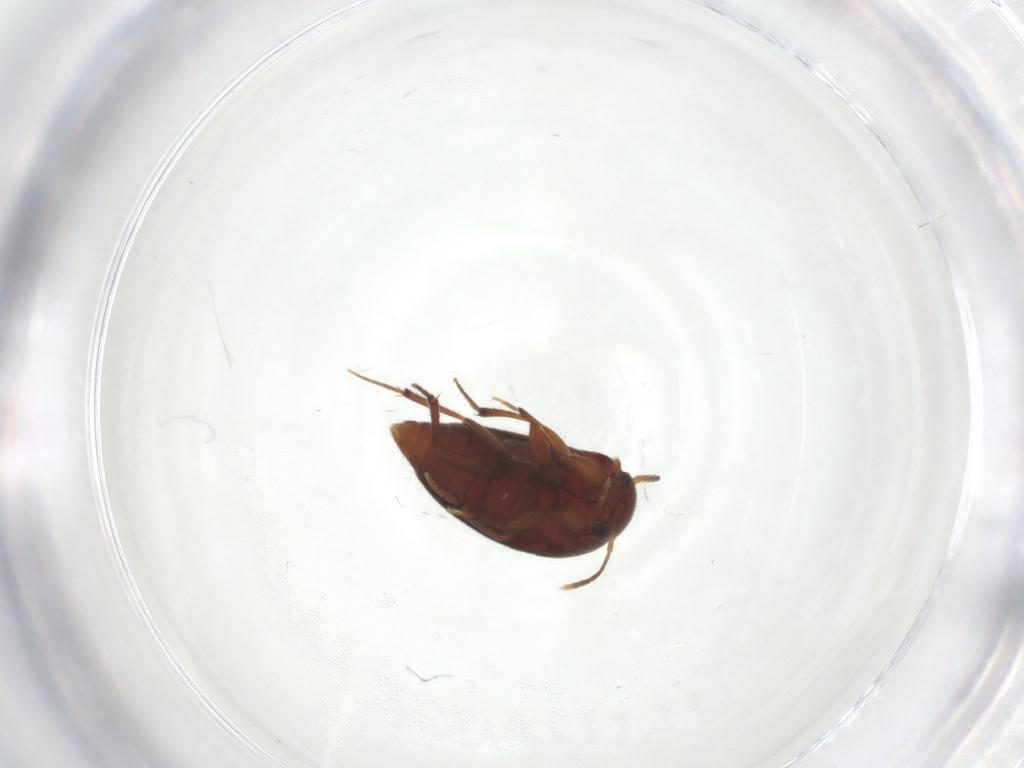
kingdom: Animalia
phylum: Arthropoda
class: Insecta
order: Coleoptera
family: Leiodidae
